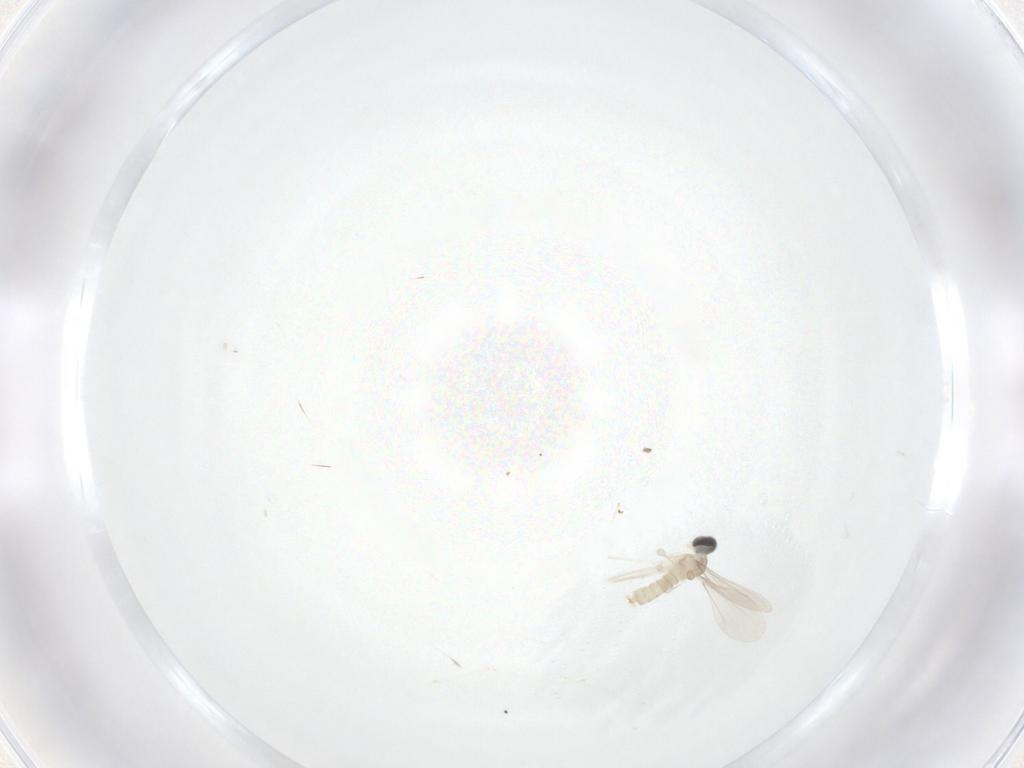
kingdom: Animalia
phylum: Arthropoda
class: Insecta
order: Diptera
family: Cecidomyiidae
